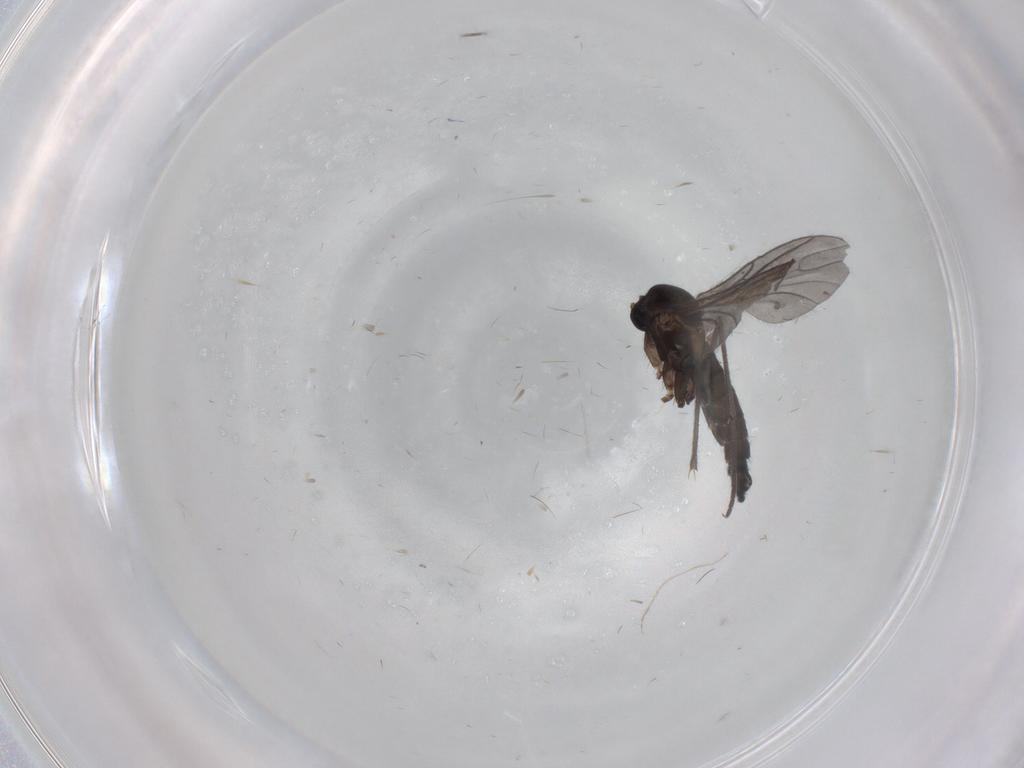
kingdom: Animalia
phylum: Arthropoda
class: Insecta
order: Diptera
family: Sciaridae
